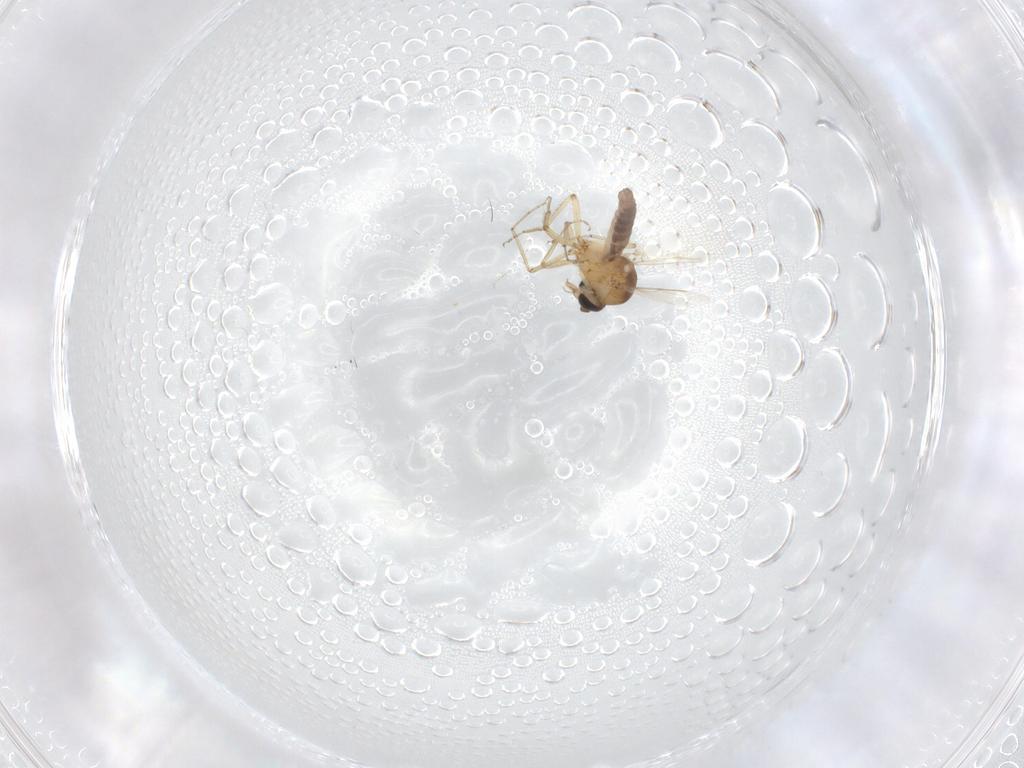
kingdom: Animalia
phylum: Arthropoda
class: Insecta
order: Diptera
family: Ceratopogonidae
